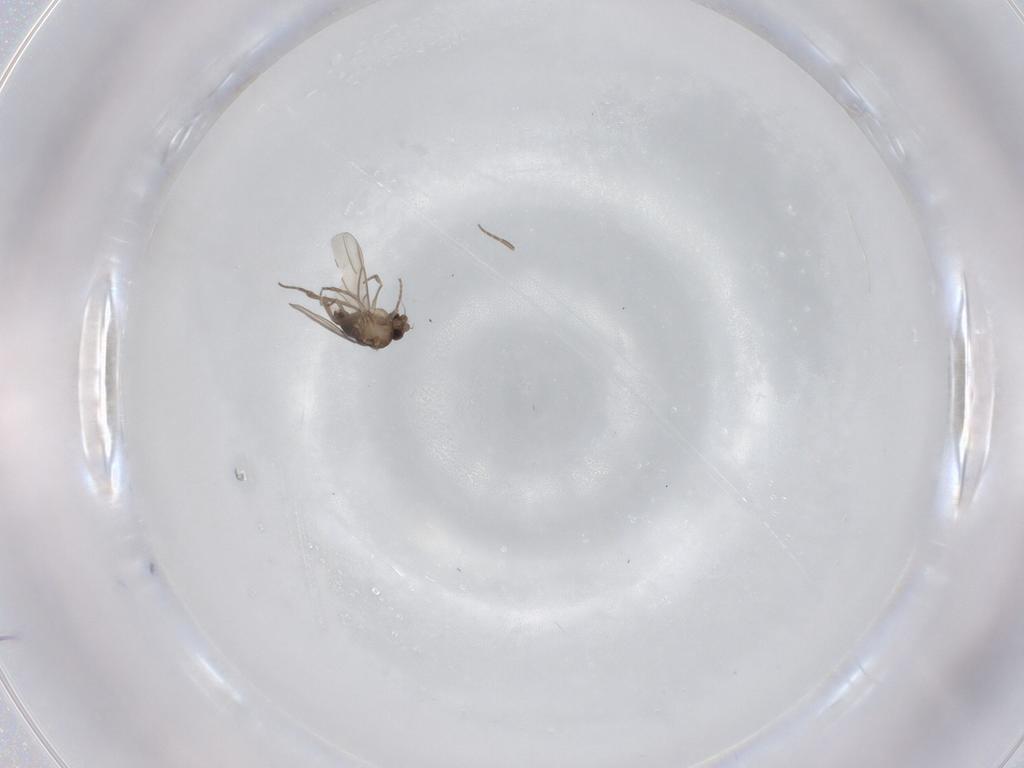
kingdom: Animalia
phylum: Arthropoda
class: Insecta
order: Diptera
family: Phoridae
